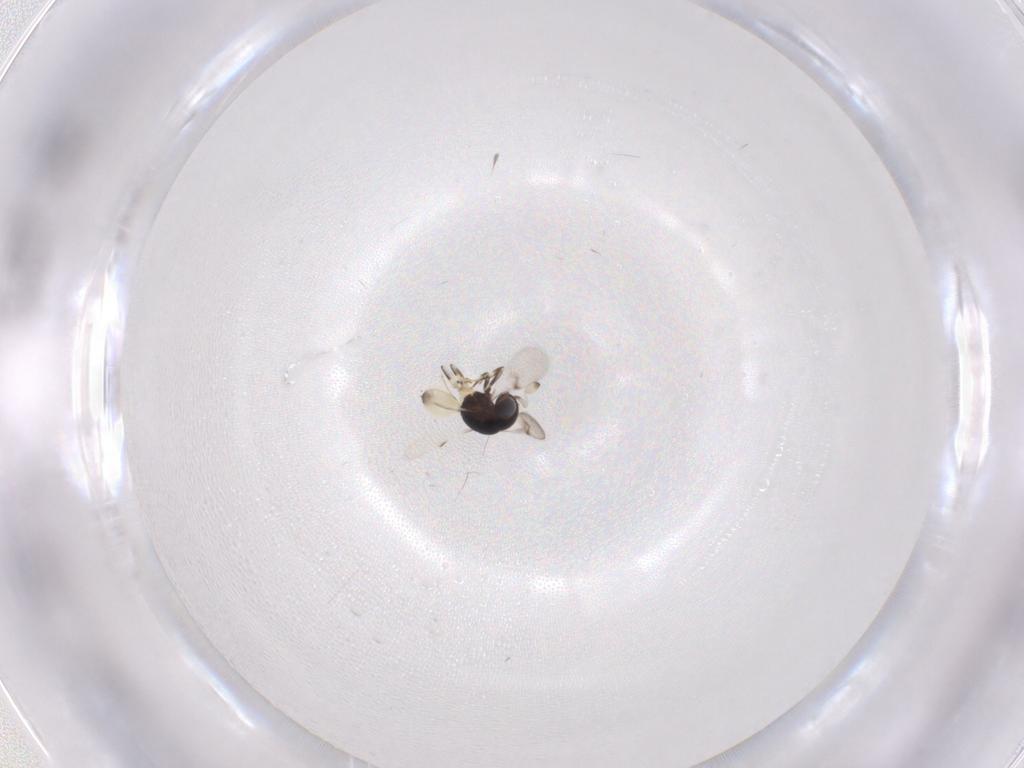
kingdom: Animalia
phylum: Arthropoda
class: Insecta
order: Hymenoptera
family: Scelionidae
